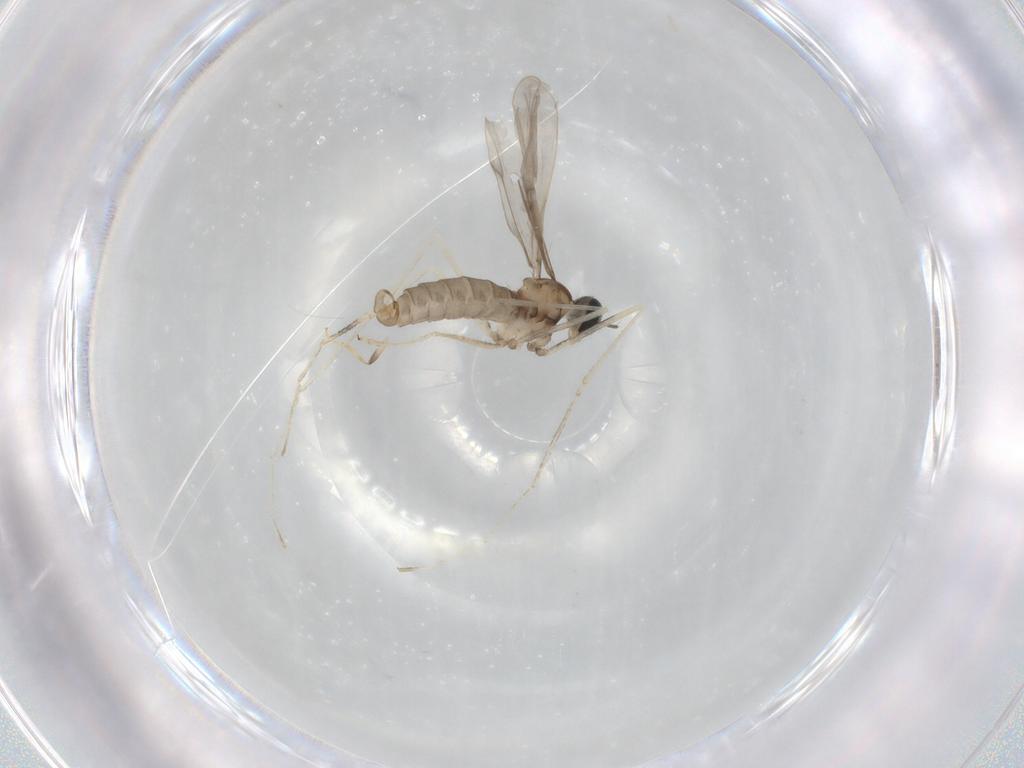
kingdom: Animalia
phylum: Arthropoda
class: Insecta
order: Diptera
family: Cecidomyiidae
